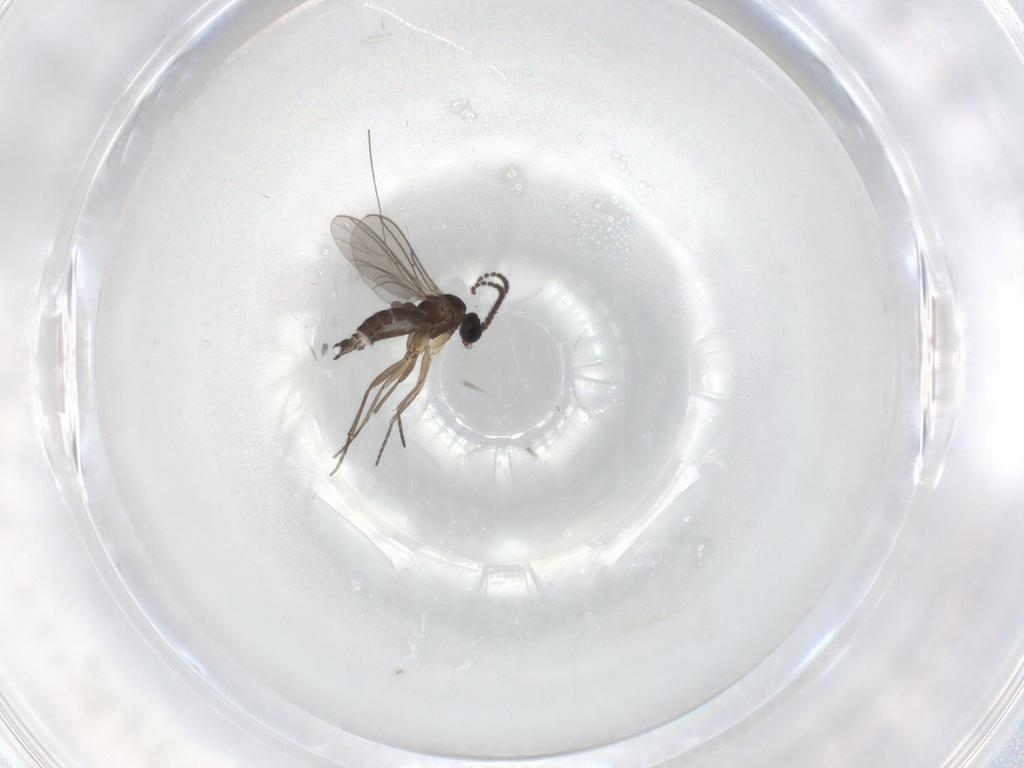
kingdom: Animalia
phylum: Arthropoda
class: Insecta
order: Diptera
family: Sciaridae
